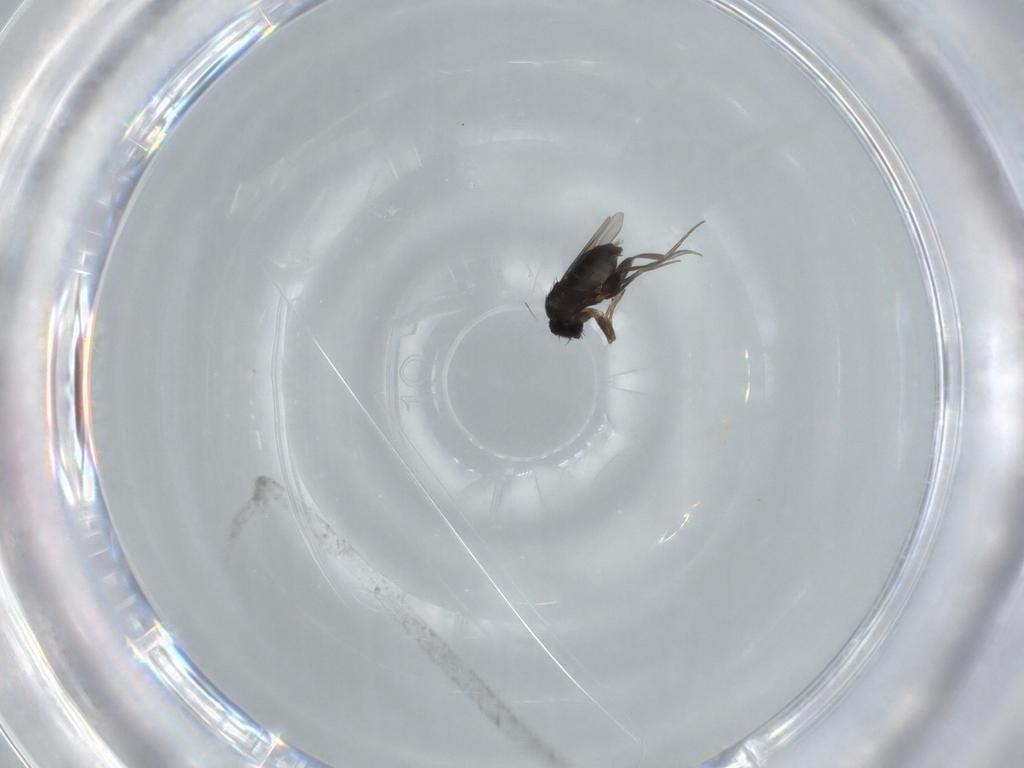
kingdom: Animalia
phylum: Arthropoda
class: Insecta
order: Diptera
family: Phoridae
